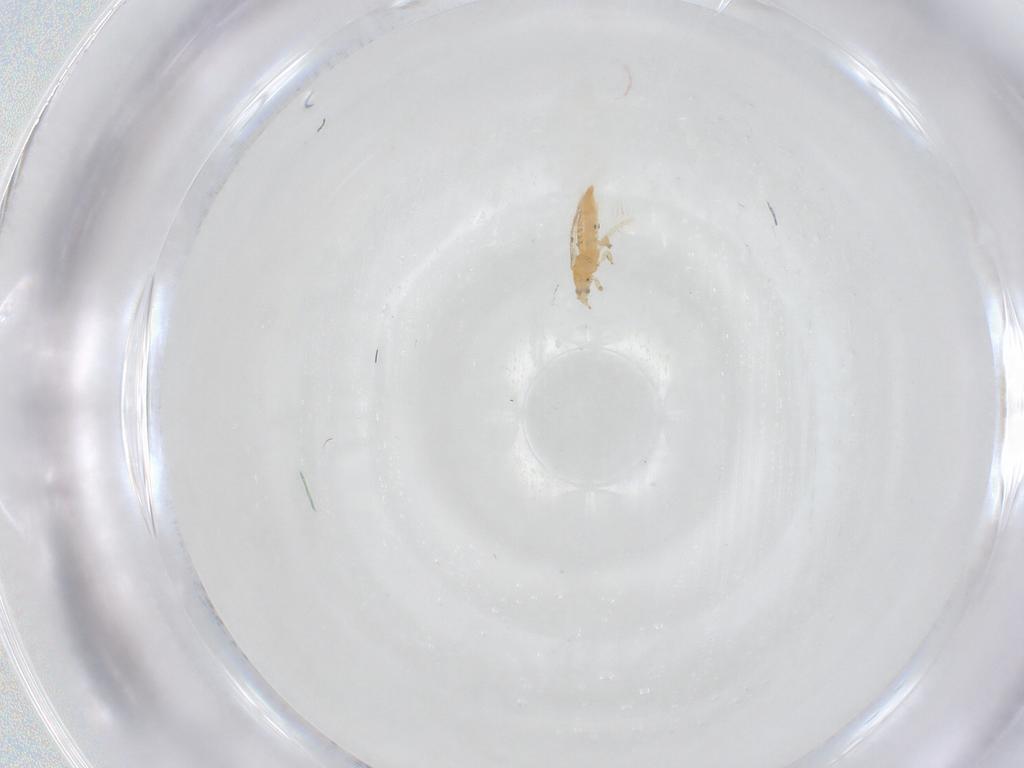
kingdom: Animalia
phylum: Arthropoda
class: Insecta
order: Thysanoptera
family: Thripidae
